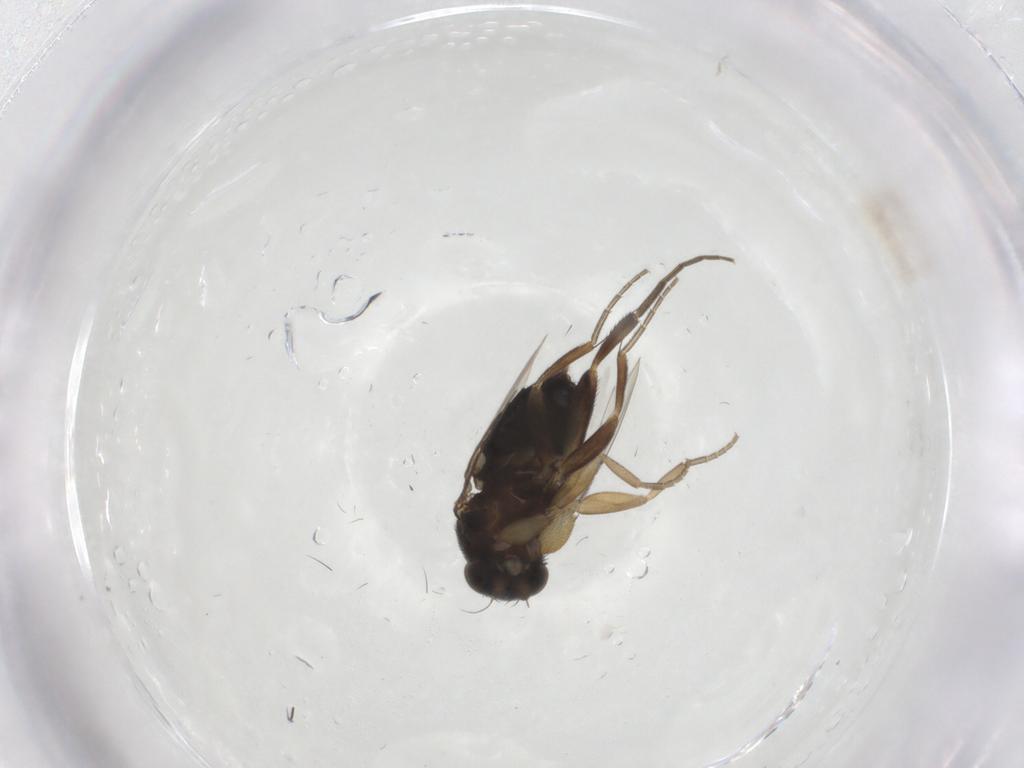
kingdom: Animalia
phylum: Arthropoda
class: Insecta
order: Diptera
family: Phoridae
